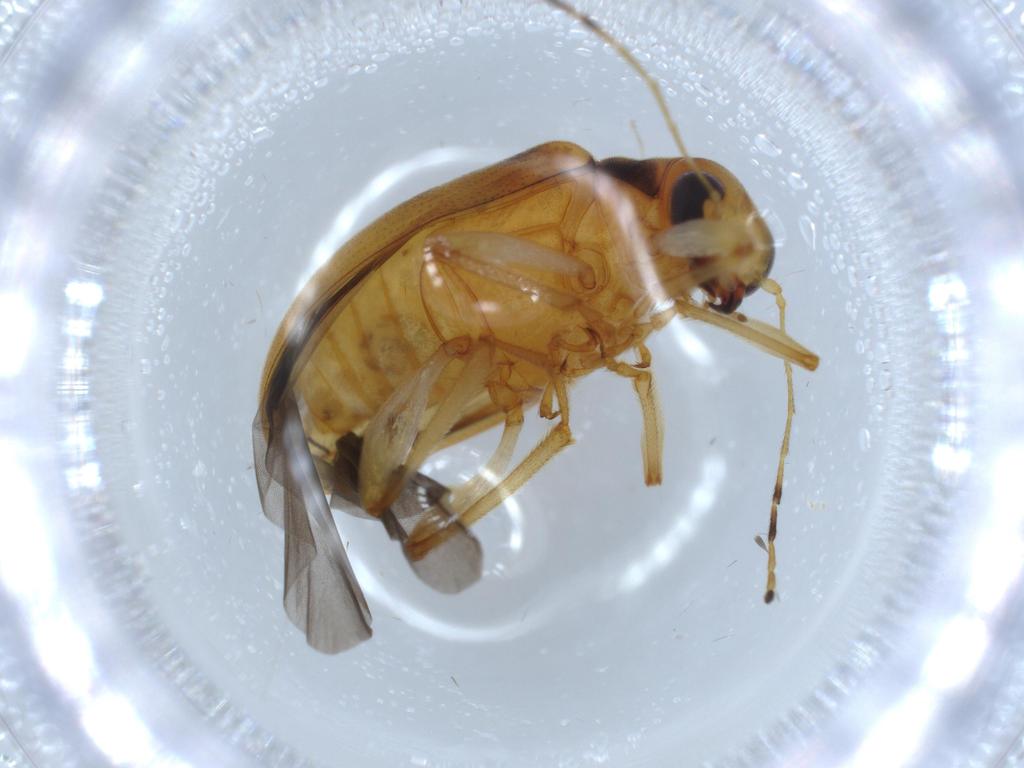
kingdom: Animalia
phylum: Arthropoda
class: Insecta
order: Coleoptera
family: Chrysomelidae
